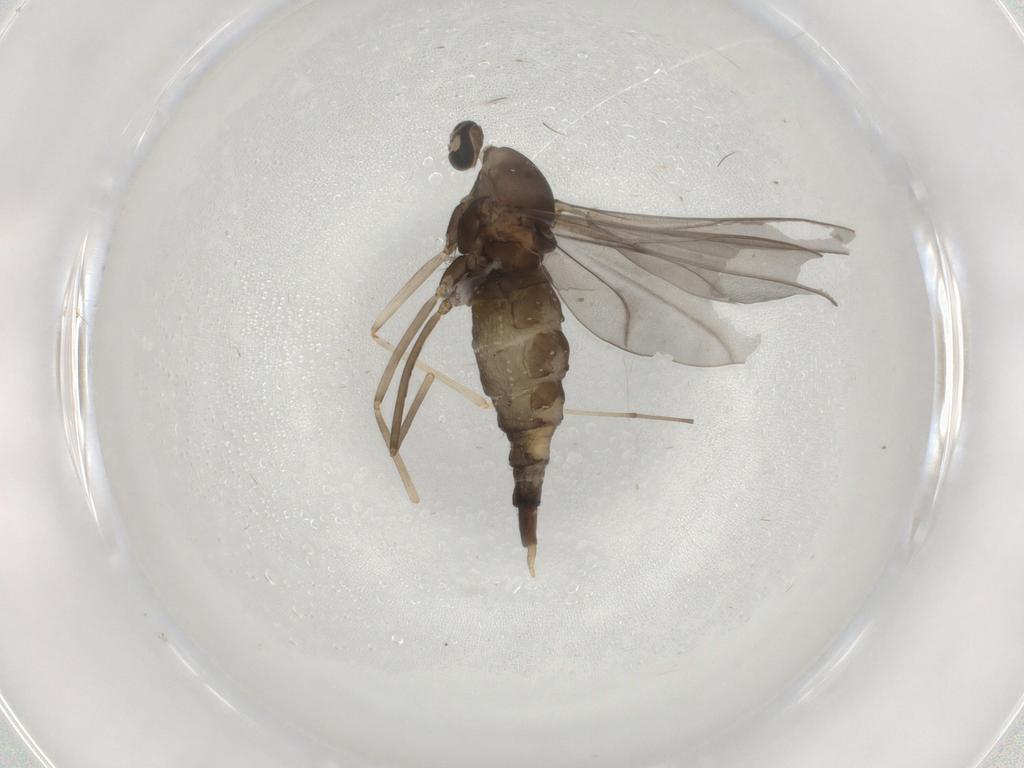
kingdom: Animalia
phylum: Arthropoda
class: Insecta
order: Diptera
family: Cecidomyiidae
